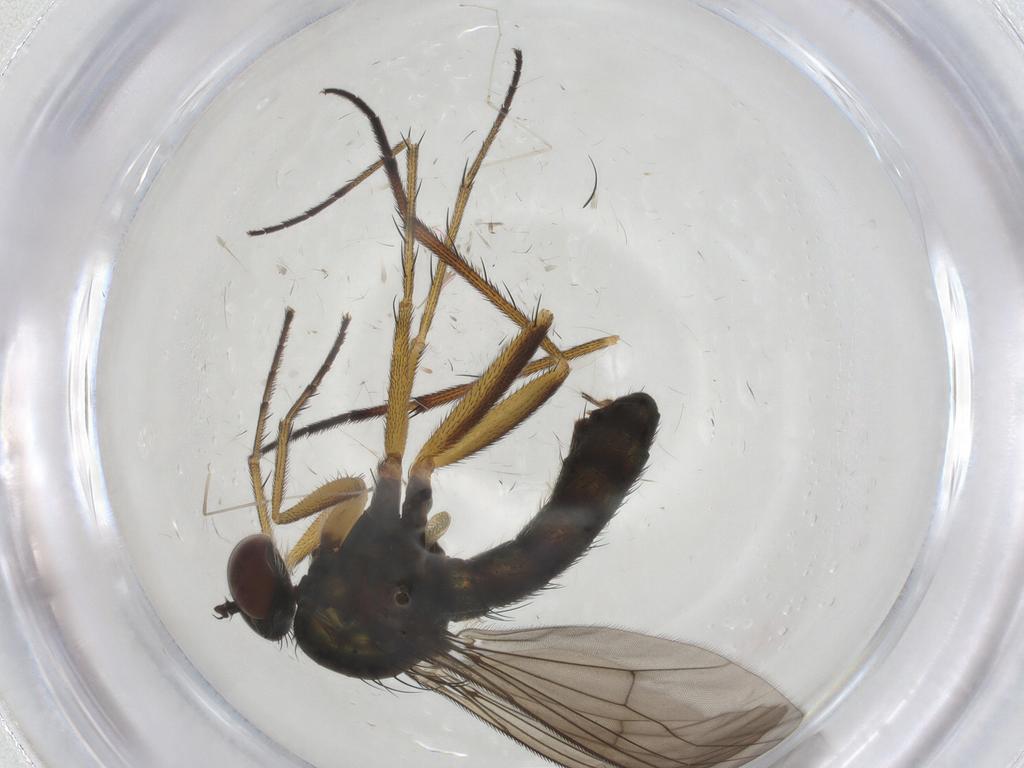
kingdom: Animalia
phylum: Arthropoda
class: Insecta
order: Diptera
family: Dolichopodidae
